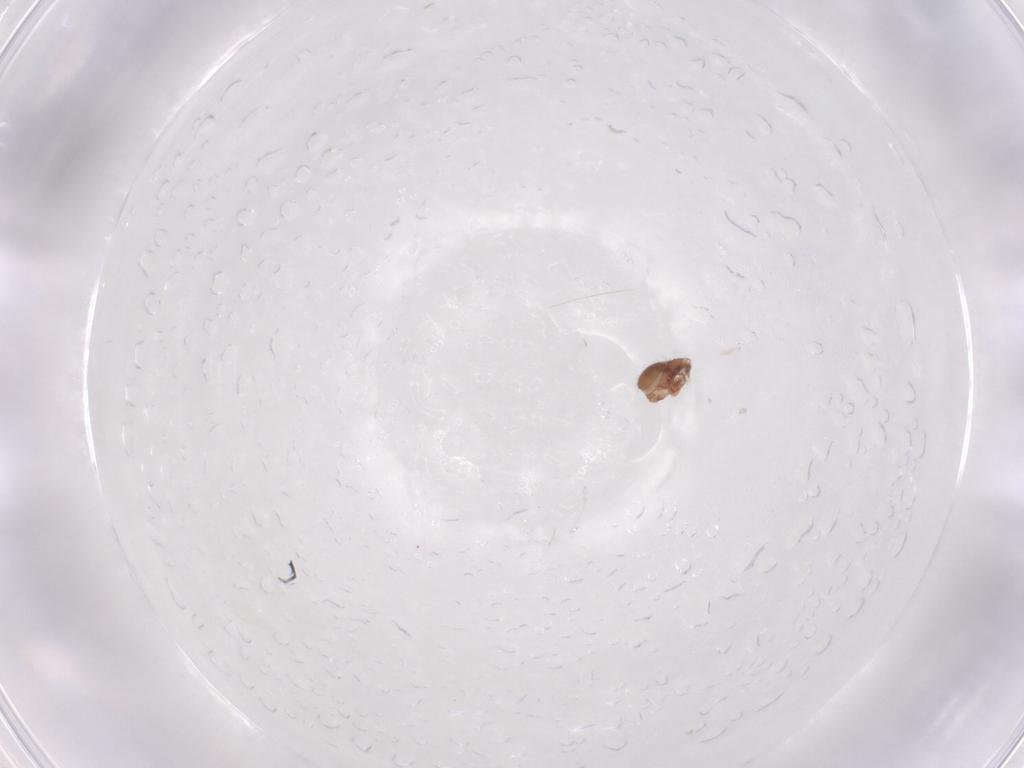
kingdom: Animalia
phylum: Arthropoda
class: Arachnida
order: Sarcoptiformes
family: Oribatulidae
